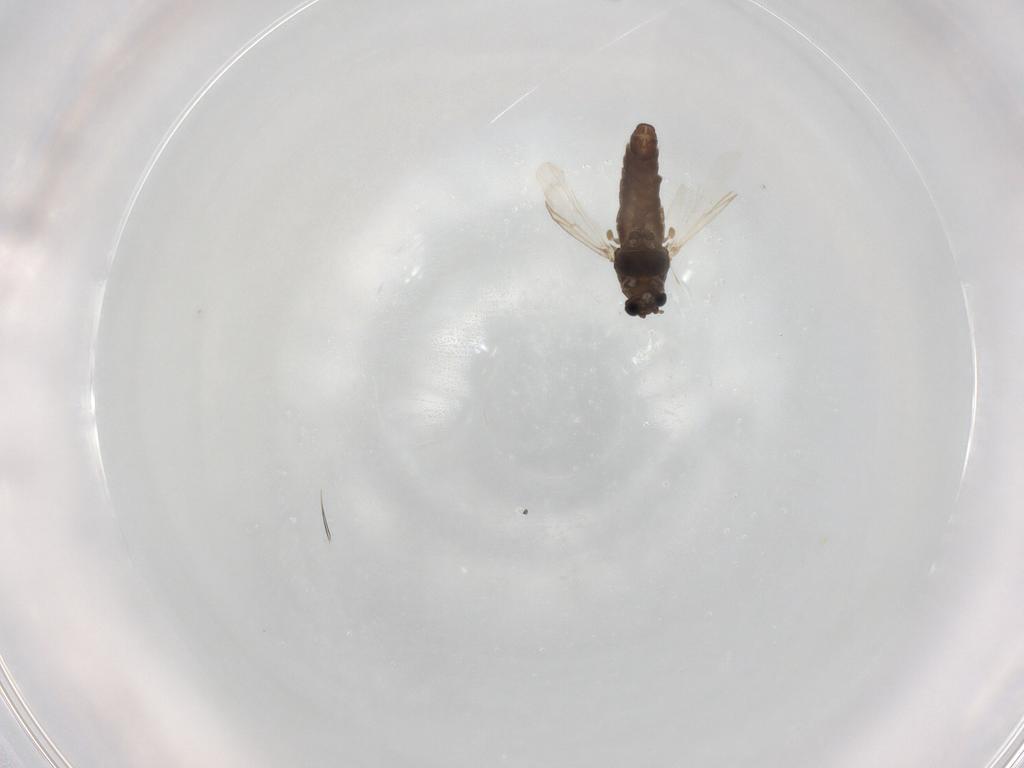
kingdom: Animalia
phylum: Arthropoda
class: Insecta
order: Diptera
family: Chironomidae
